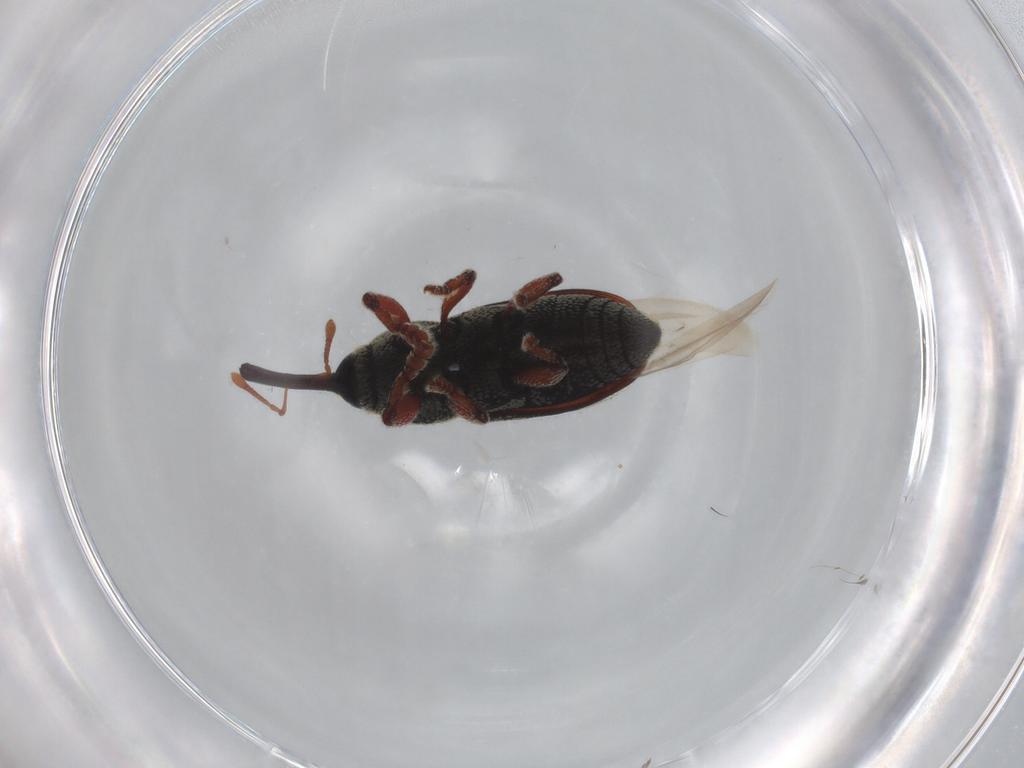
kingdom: Animalia
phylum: Arthropoda
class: Insecta
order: Coleoptera
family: Curculionidae
